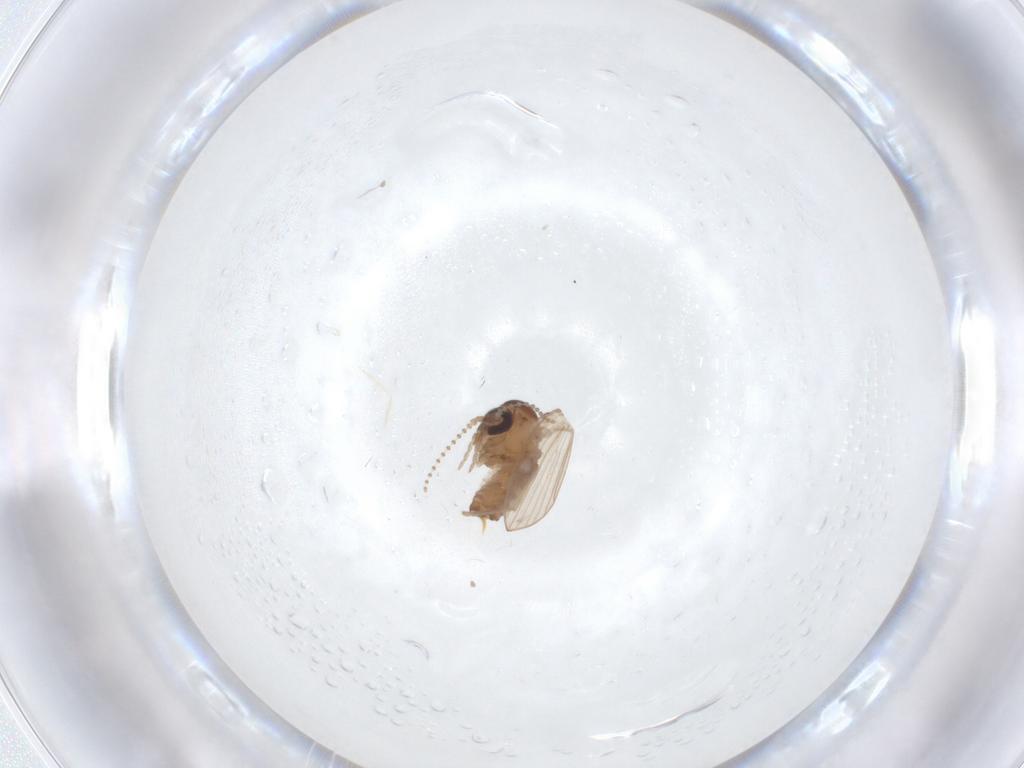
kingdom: Animalia
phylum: Arthropoda
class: Insecta
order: Diptera
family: Psychodidae
